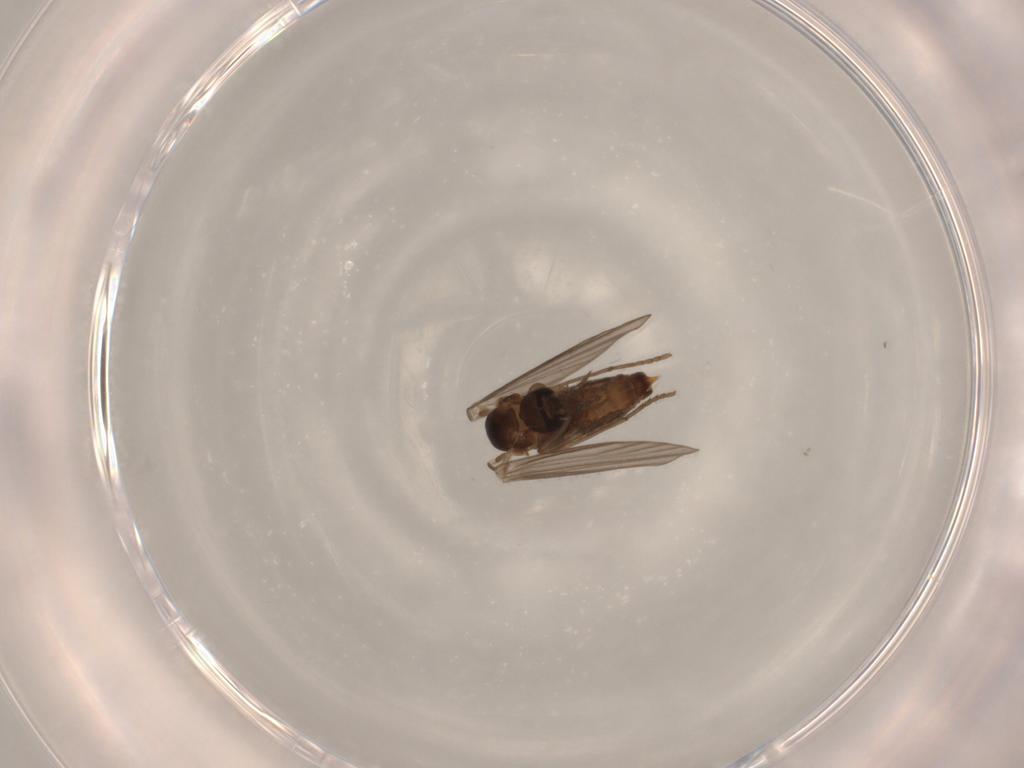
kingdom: Animalia
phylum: Arthropoda
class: Insecta
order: Diptera
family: Psychodidae
